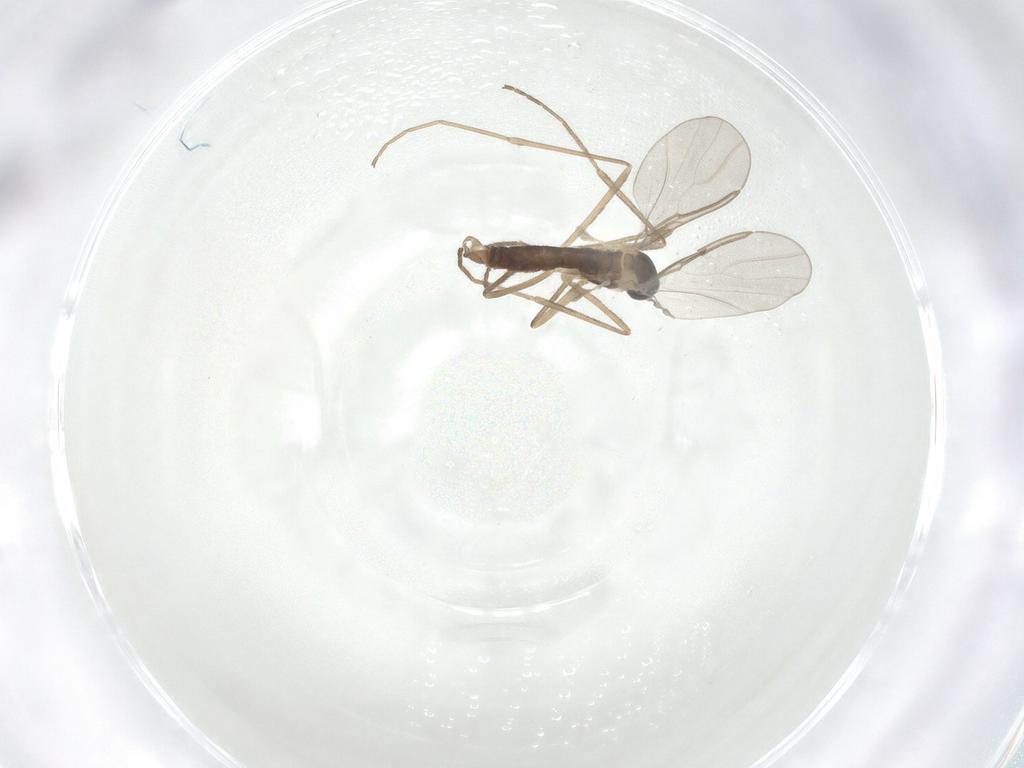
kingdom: Animalia
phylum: Arthropoda
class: Insecta
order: Diptera
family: Cecidomyiidae
